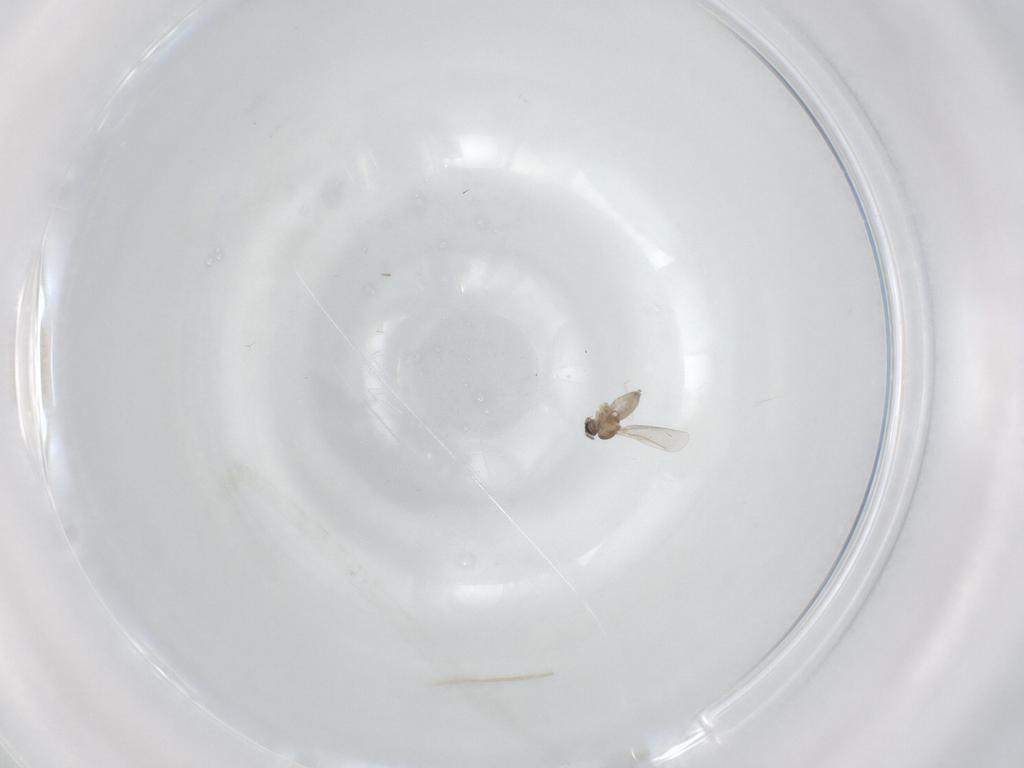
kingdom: Animalia
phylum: Arthropoda
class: Insecta
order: Diptera
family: Cecidomyiidae
